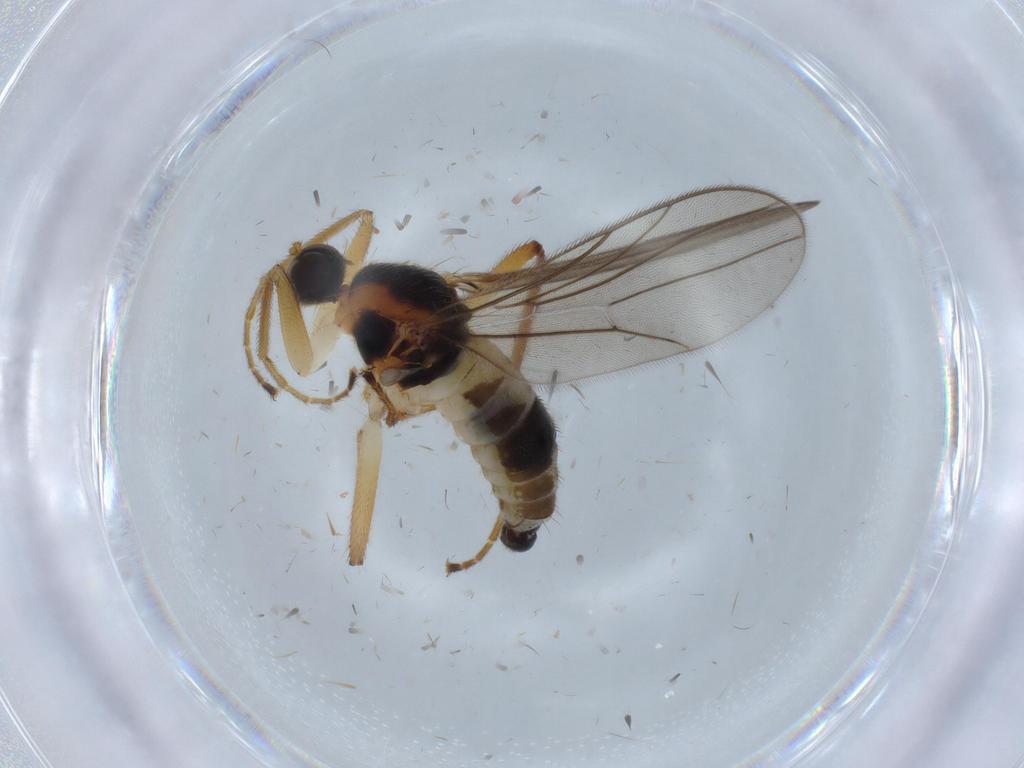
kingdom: Animalia
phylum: Arthropoda
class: Insecta
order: Diptera
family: Hybotidae
